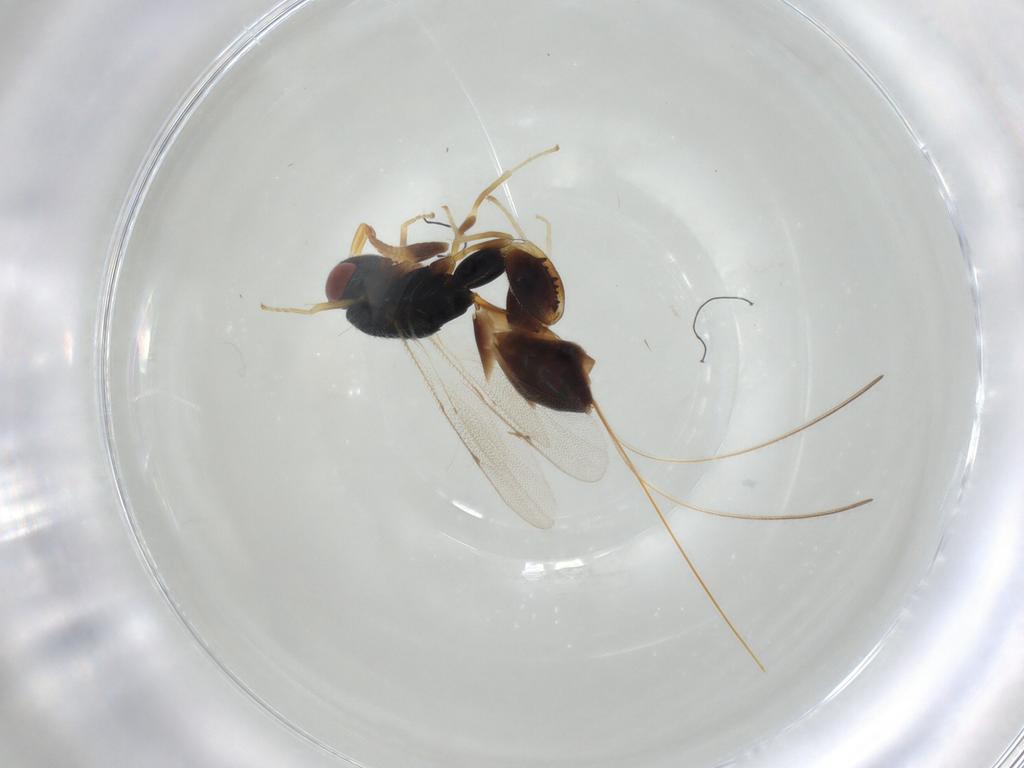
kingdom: Animalia
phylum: Arthropoda
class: Insecta
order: Hymenoptera
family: Torymidae
